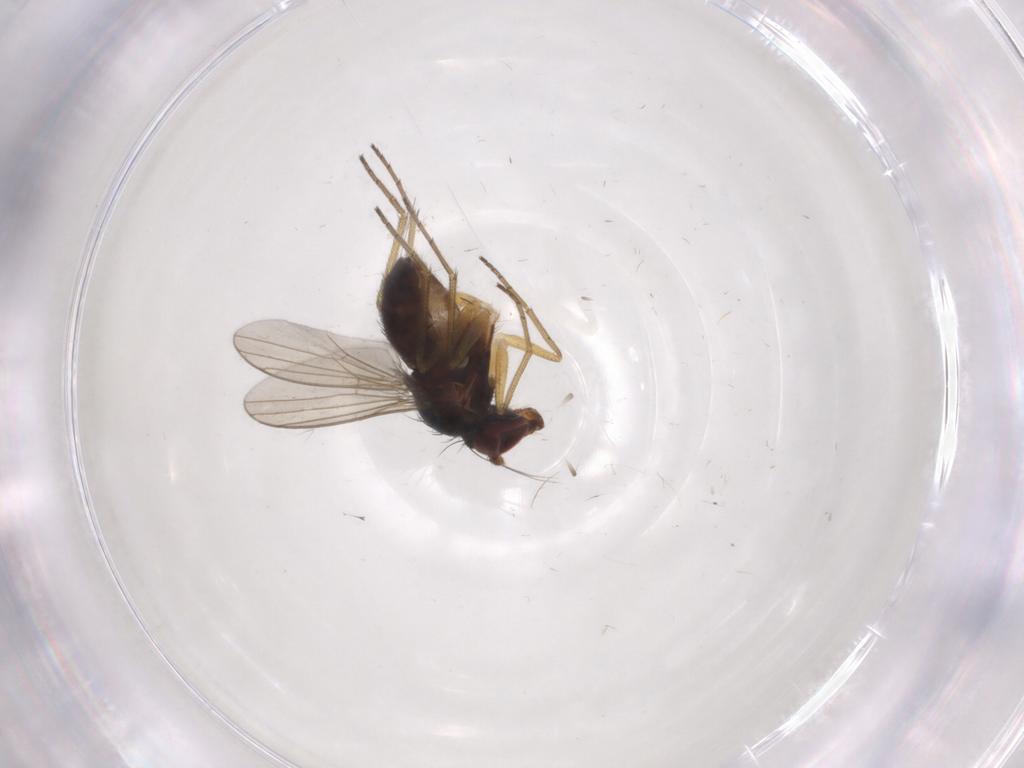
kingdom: Animalia
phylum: Arthropoda
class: Insecta
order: Diptera
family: Dolichopodidae
